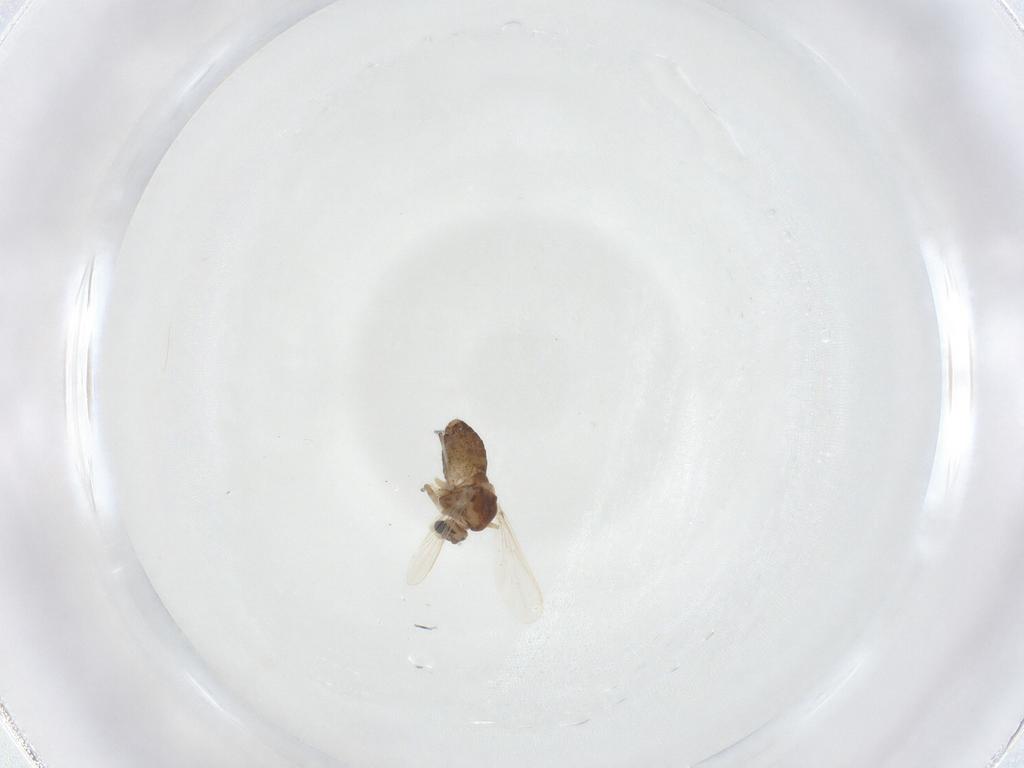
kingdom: Animalia
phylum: Arthropoda
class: Insecta
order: Diptera
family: Chironomidae
